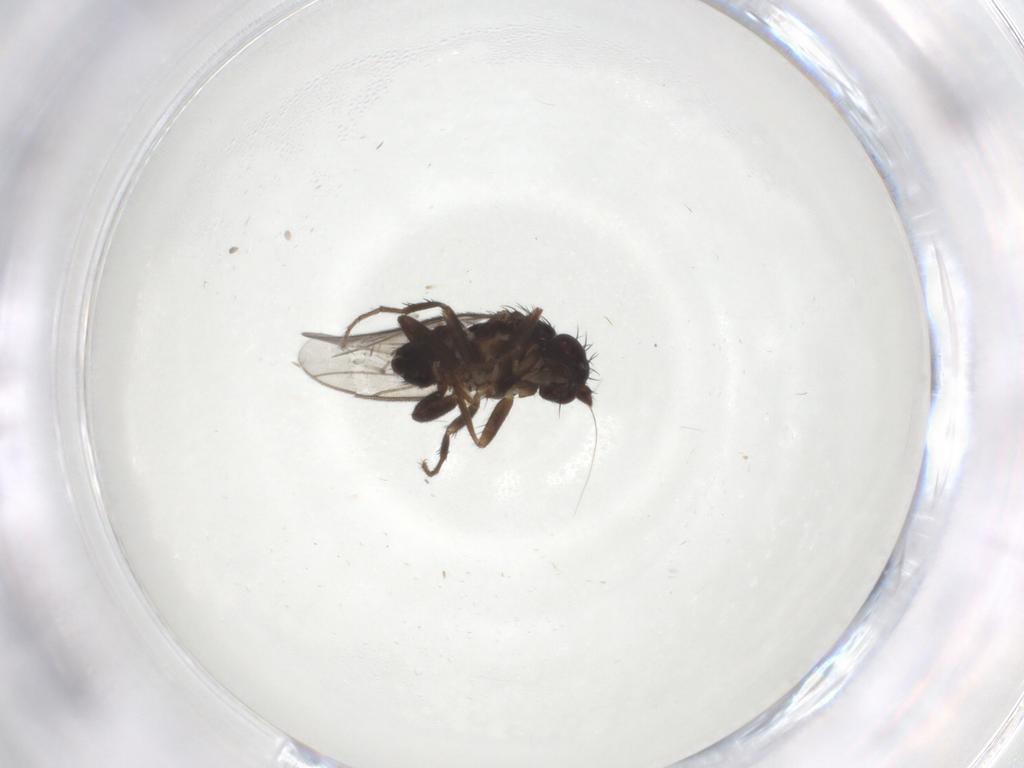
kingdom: Animalia
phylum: Arthropoda
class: Insecta
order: Diptera
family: Sphaeroceridae
